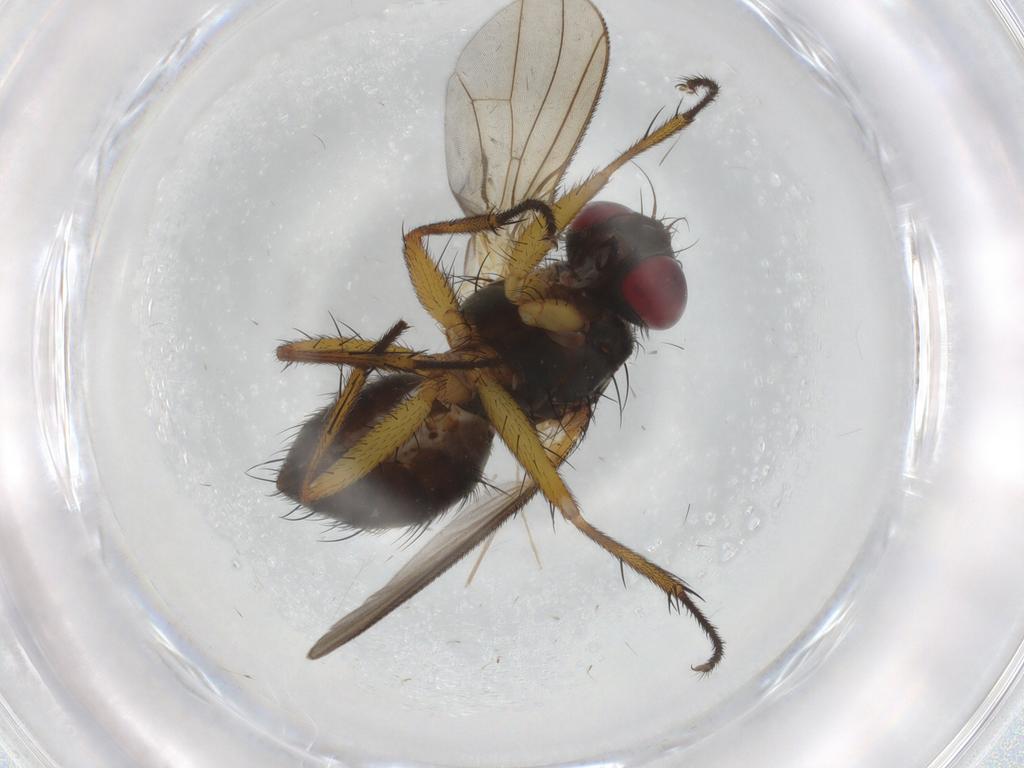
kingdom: Animalia
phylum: Arthropoda
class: Insecta
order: Diptera
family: Muscidae
